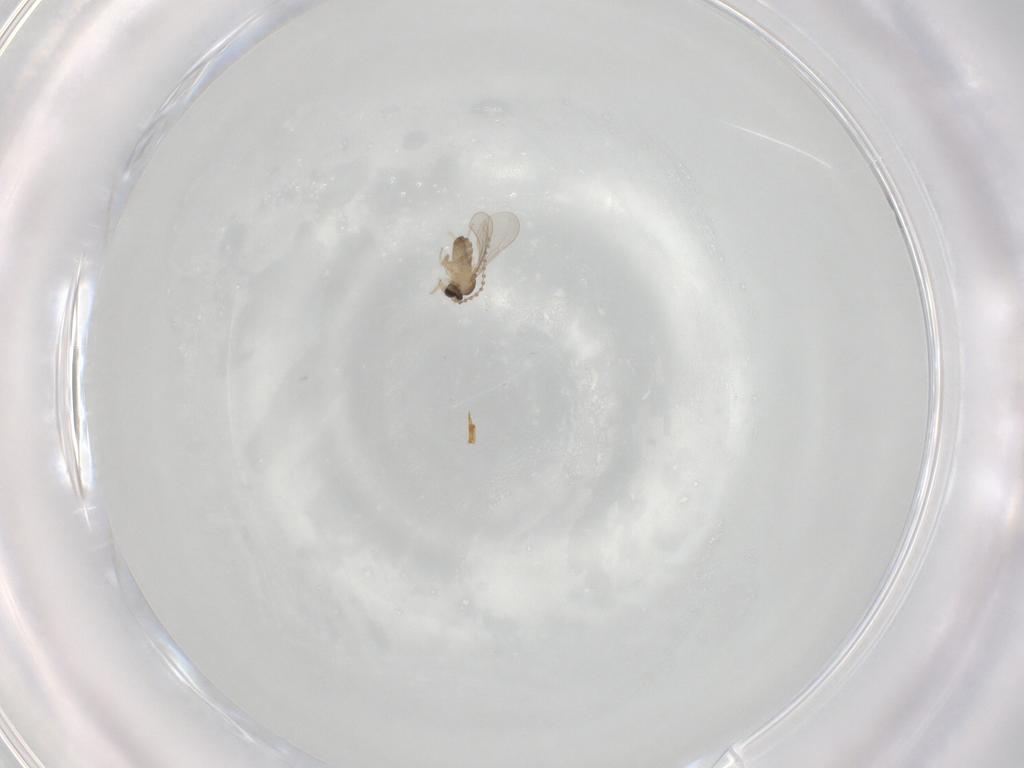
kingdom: Animalia
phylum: Arthropoda
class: Insecta
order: Diptera
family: Cecidomyiidae
